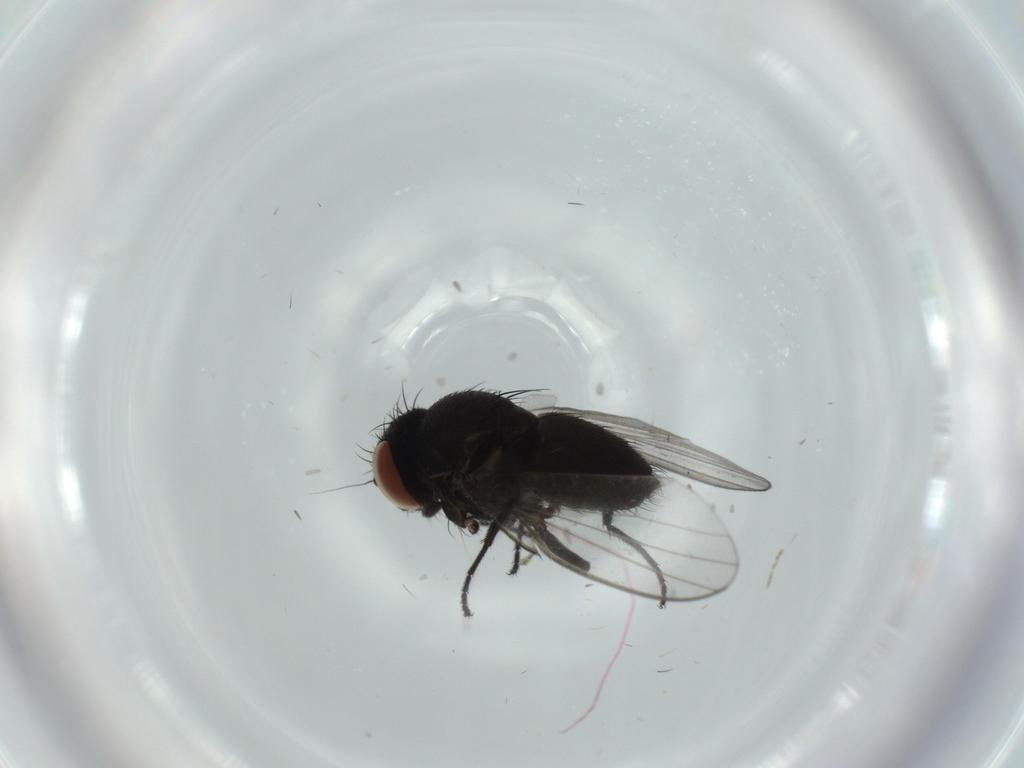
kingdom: Animalia
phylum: Arthropoda
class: Insecta
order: Diptera
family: Milichiidae
